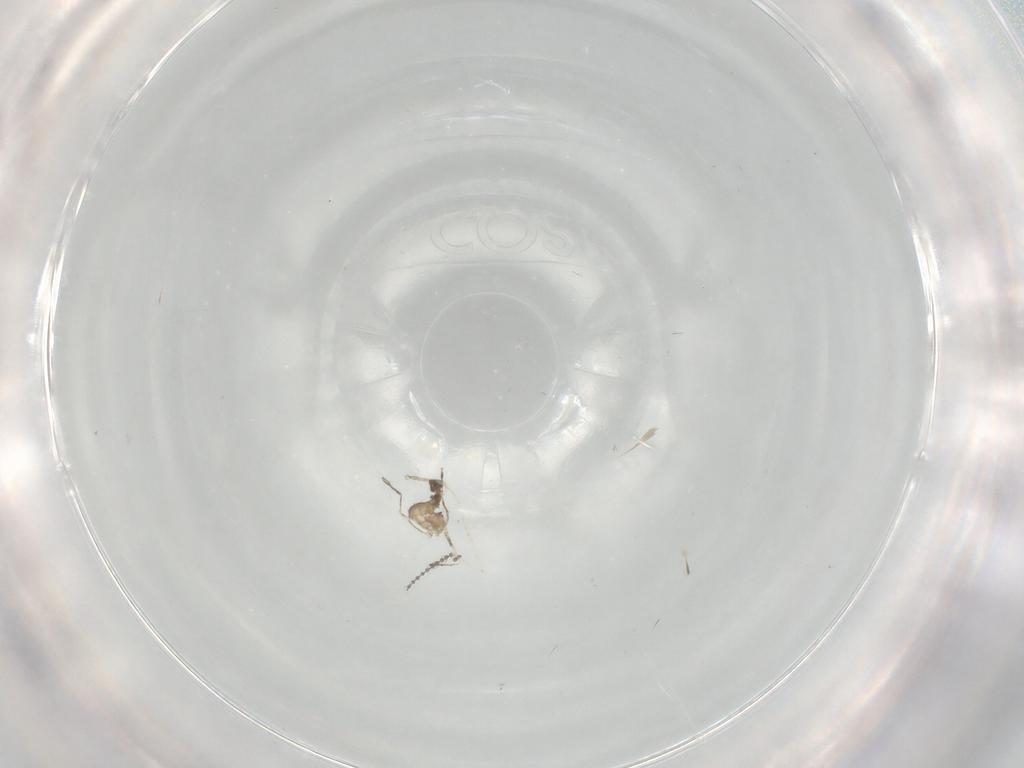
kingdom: Animalia
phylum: Arthropoda
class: Insecta
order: Diptera
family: Cecidomyiidae
